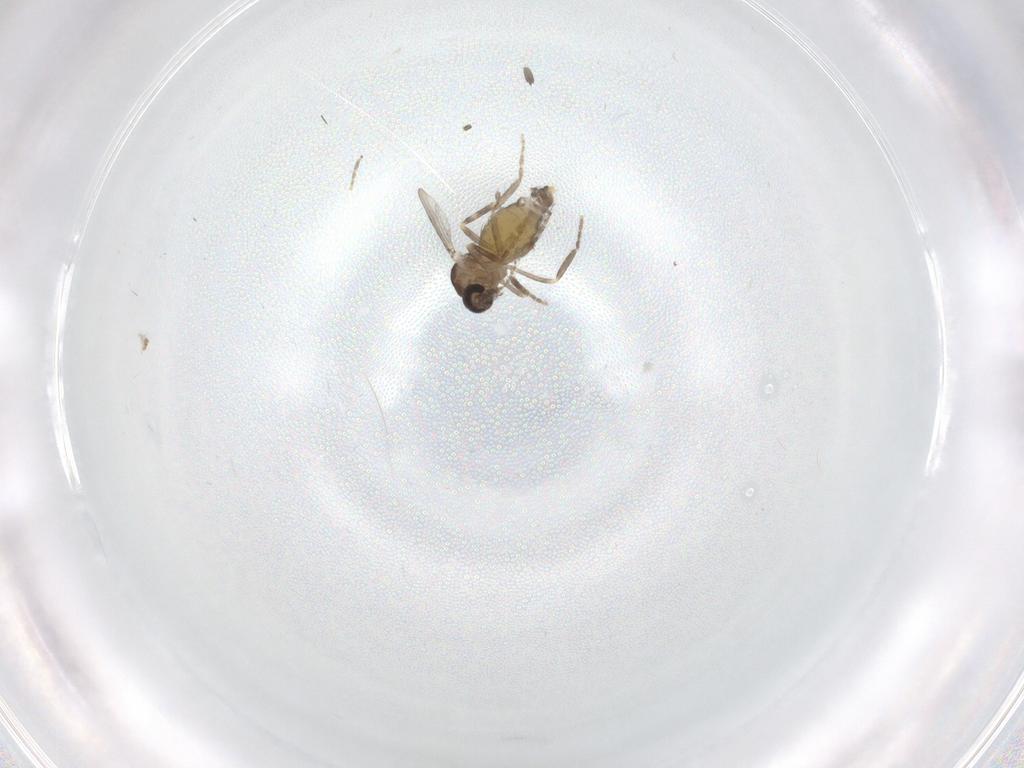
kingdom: Animalia
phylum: Arthropoda
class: Insecta
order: Diptera
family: Ceratopogonidae
